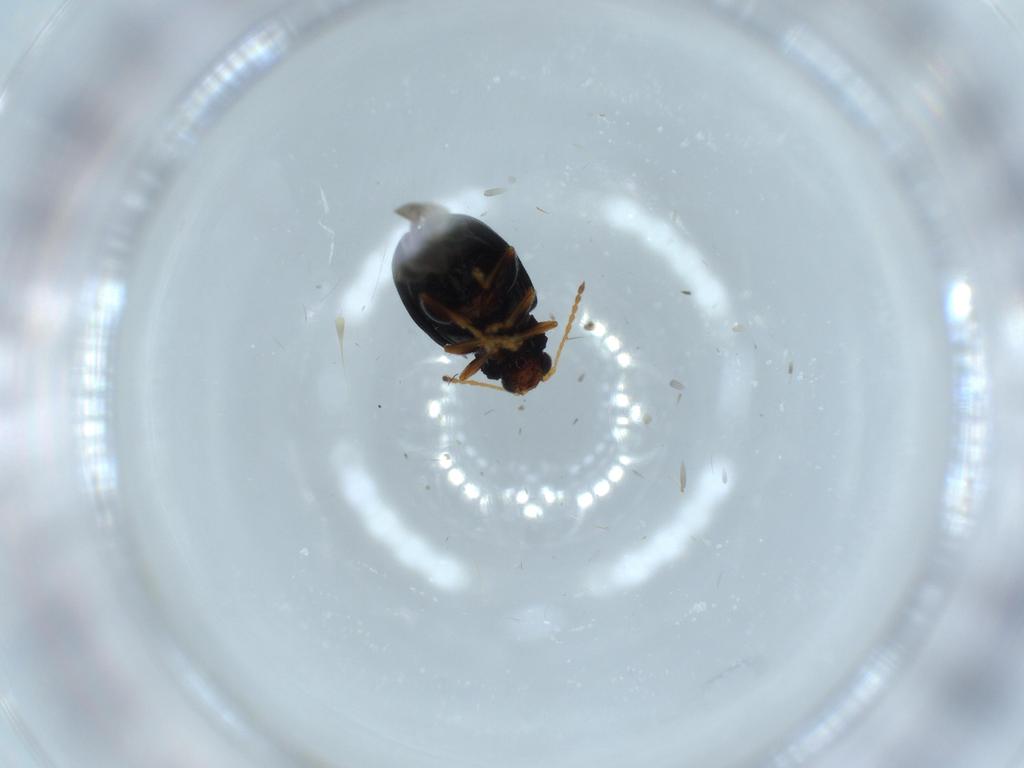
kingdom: Animalia
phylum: Arthropoda
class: Insecta
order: Coleoptera
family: Chrysomelidae
